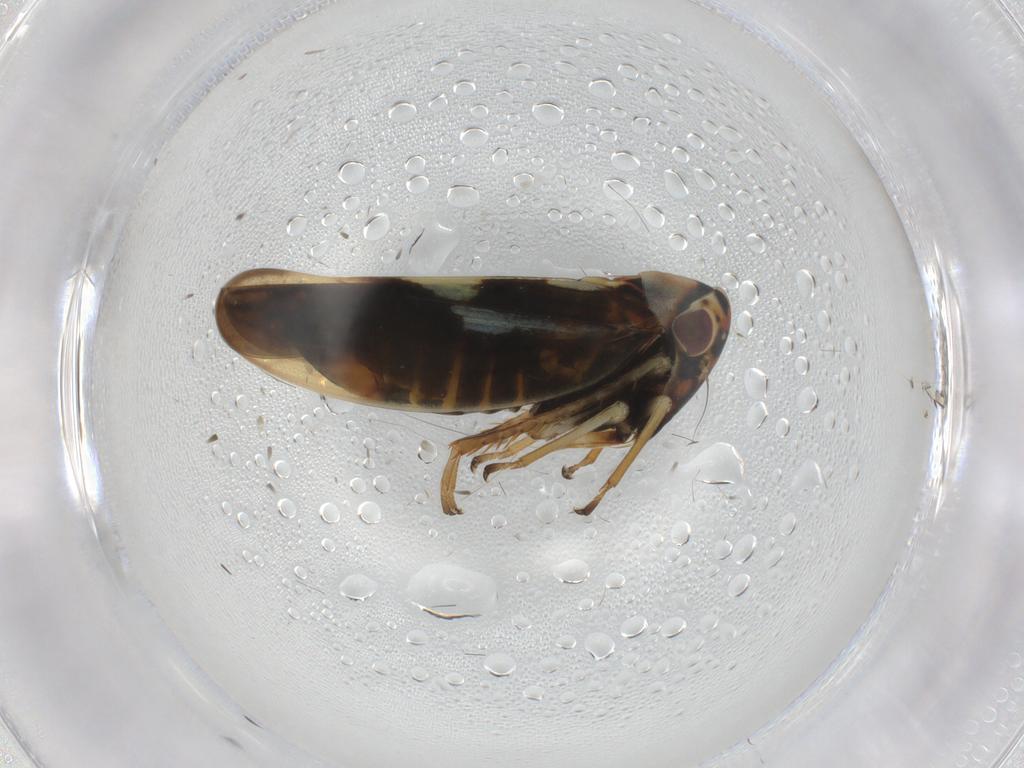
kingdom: Animalia
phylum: Arthropoda
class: Insecta
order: Hemiptera
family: Cicadellidae
